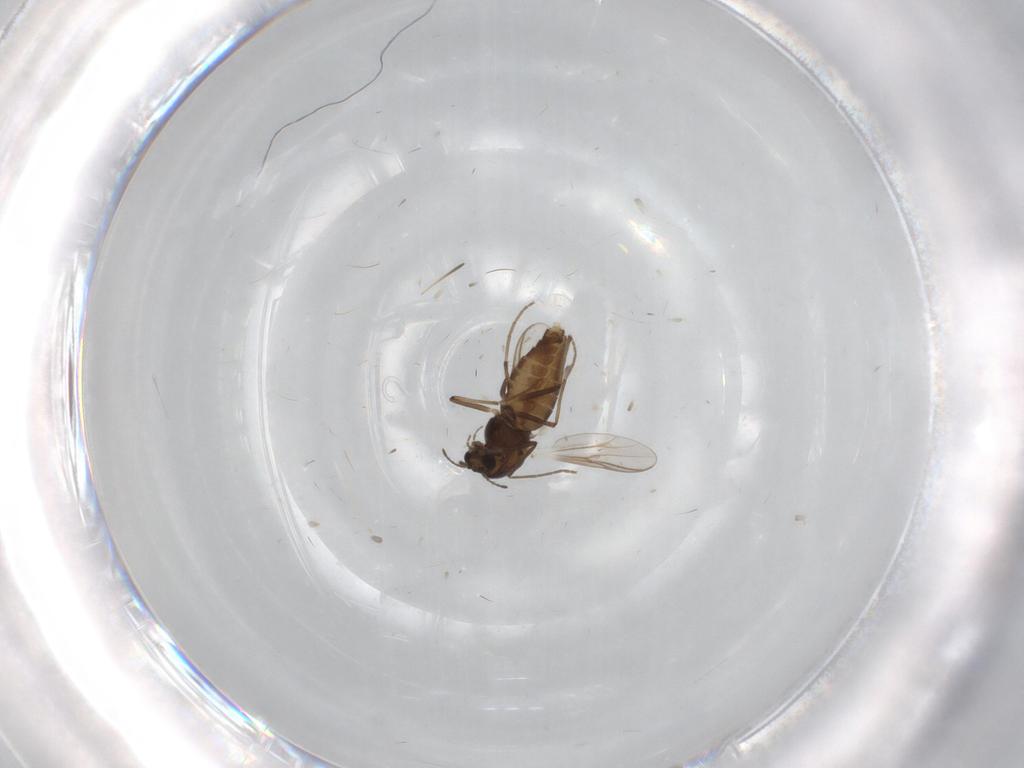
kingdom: Animalia
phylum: Arthropoda
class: Insecta
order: Diptera
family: Chironomidae
